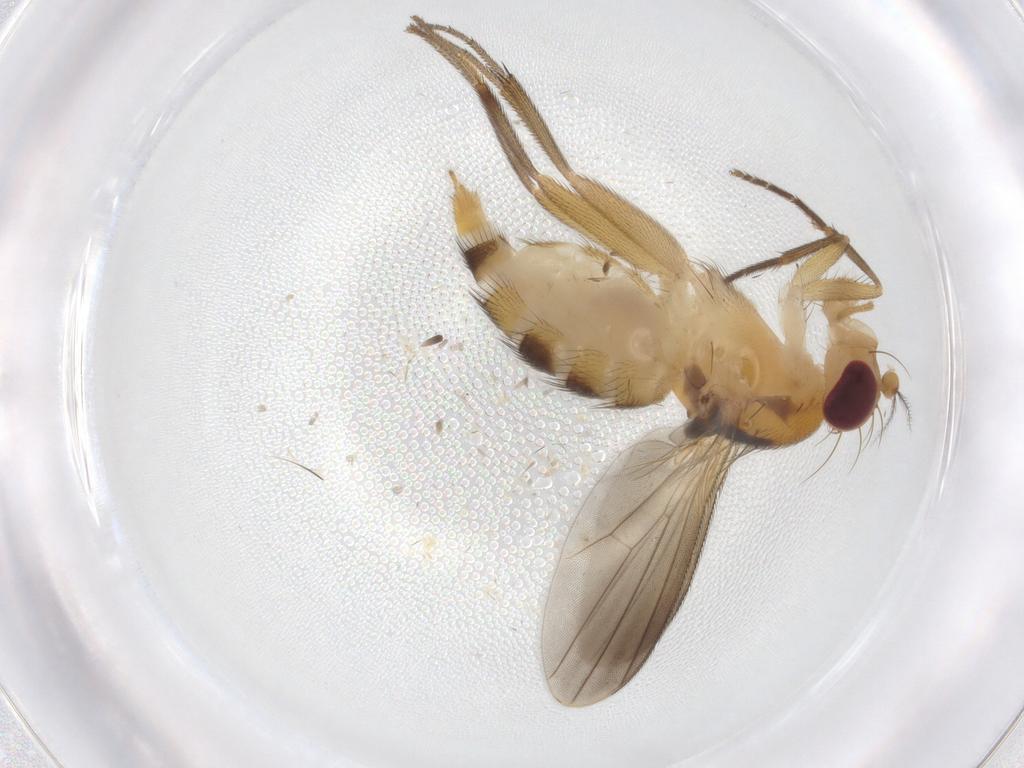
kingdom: Animalia
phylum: Arthropoda
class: Insecta
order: Diptera
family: Clusiidae
